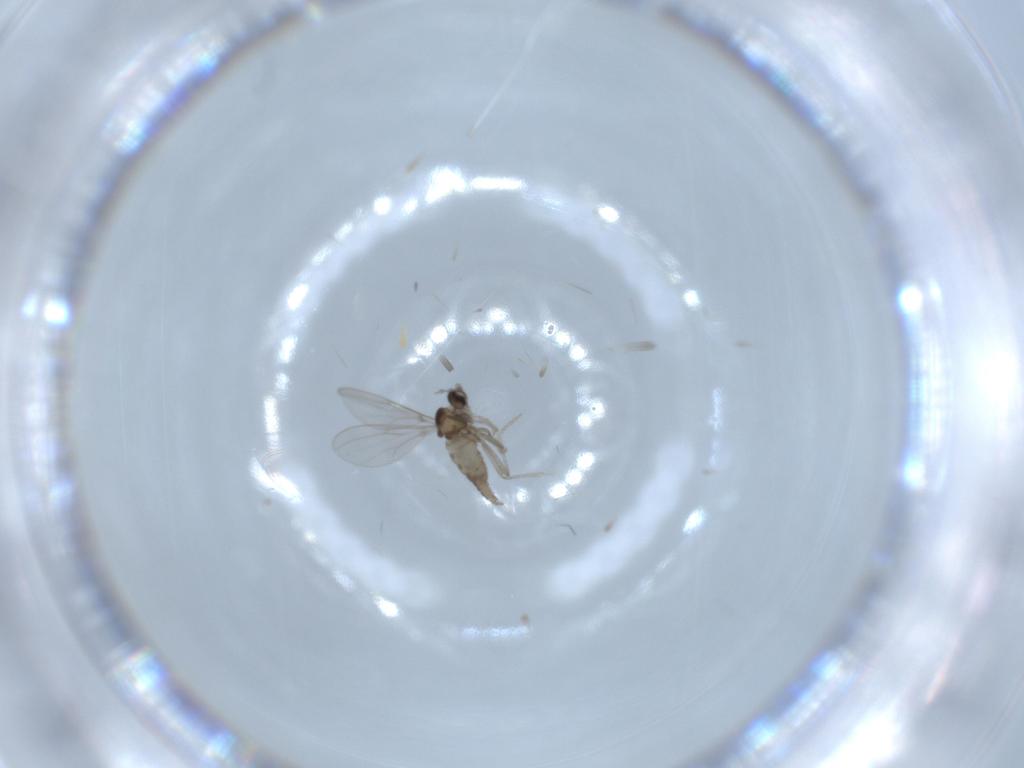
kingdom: Animalia
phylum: Arthropoda
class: Insecta
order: Diptera
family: Cecidomyiidae
